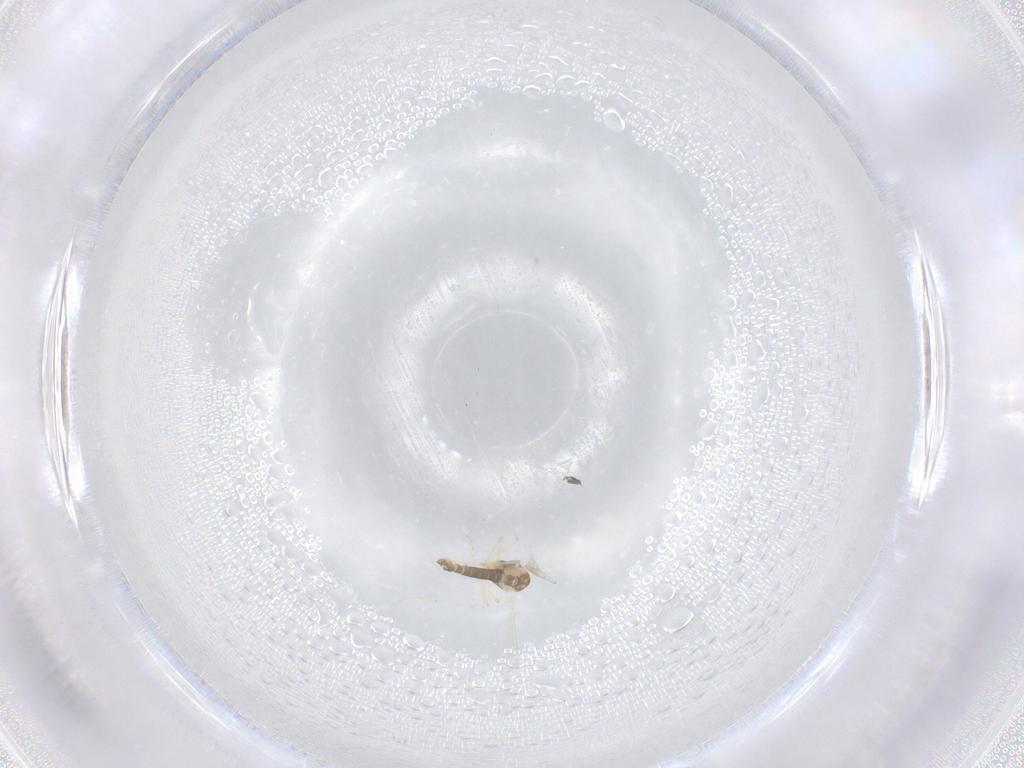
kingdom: Animalia
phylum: Arthropoda
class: Insecta
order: Diptera
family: Chironomidae
